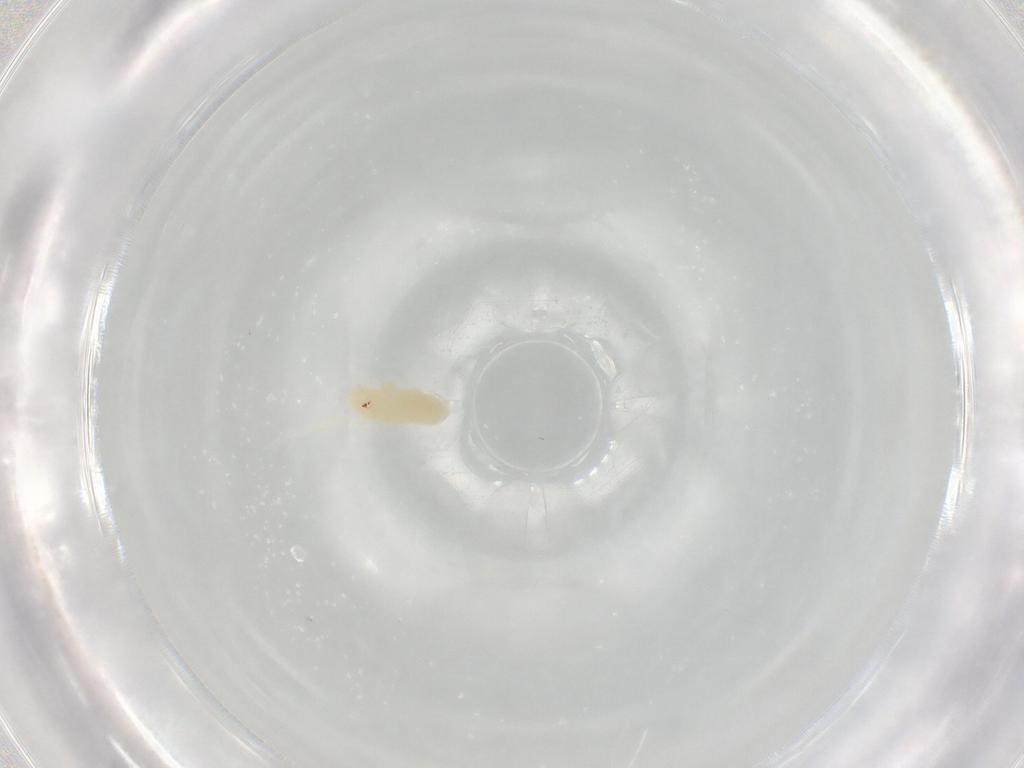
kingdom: Animalia
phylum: Arthropoda
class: Insecta
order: Hemiptera
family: Aphididae
